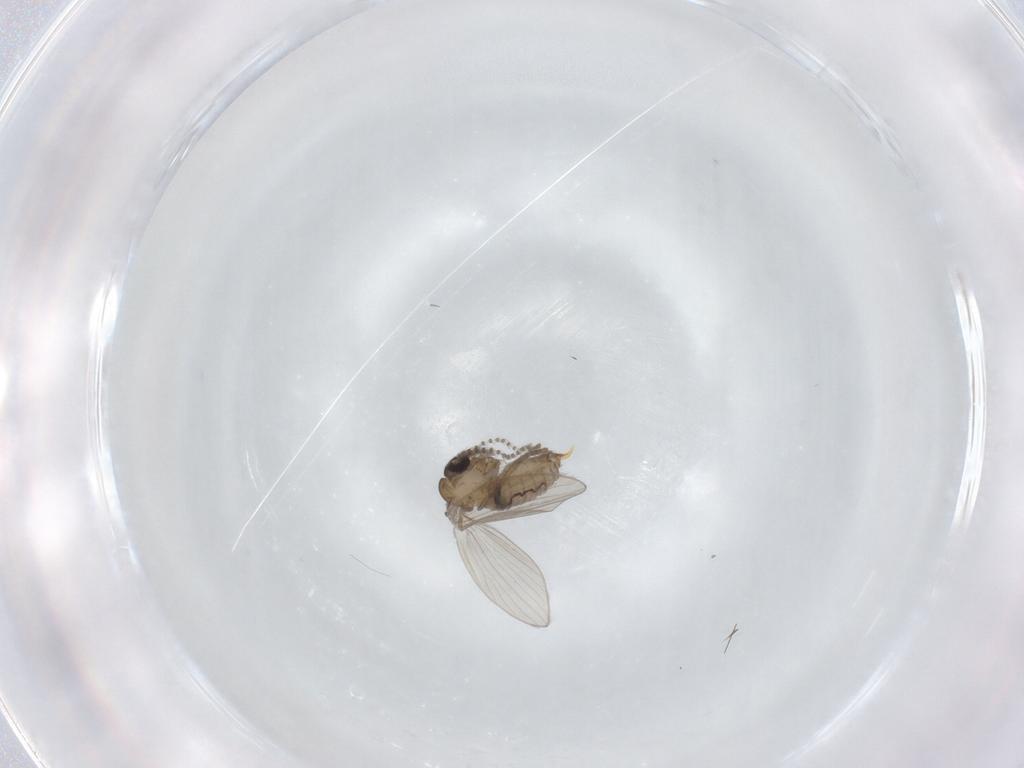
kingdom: Animalia
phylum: Arthropoda
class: Insecta
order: Diptera
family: Psychodidae
